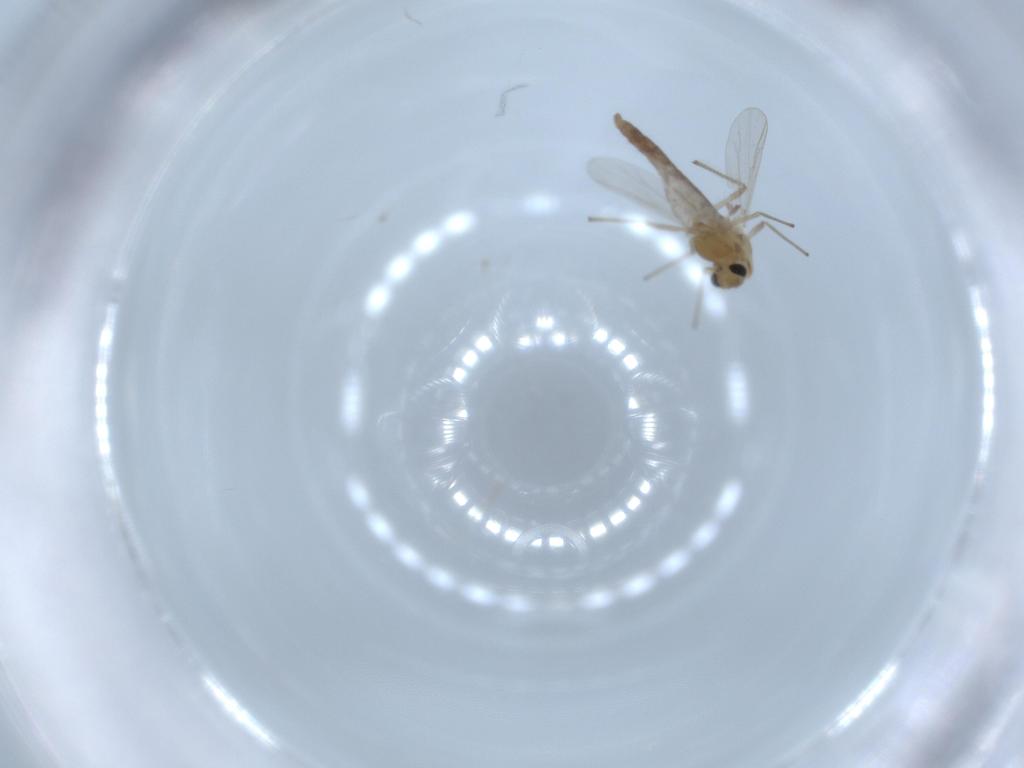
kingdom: Animalia
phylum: Arthropoda
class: Insecta
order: Diptera
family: Chironomidae
